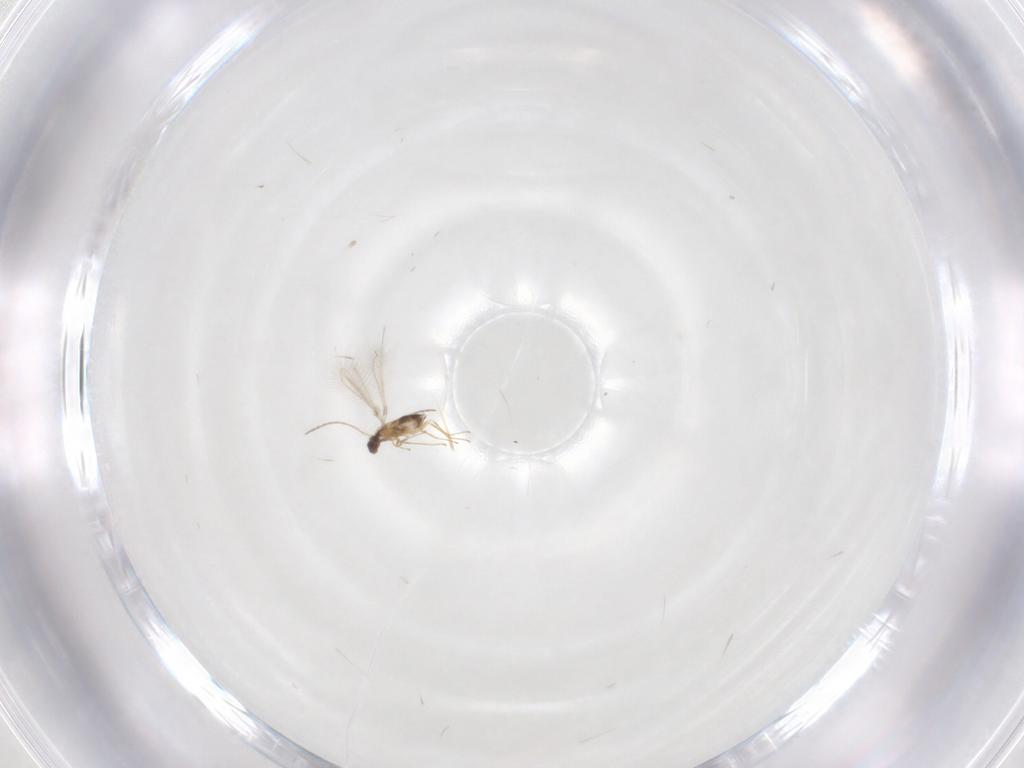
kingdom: Animalia
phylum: Arthropoda
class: Insecta
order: Hymenoptera
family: Mymaridae
